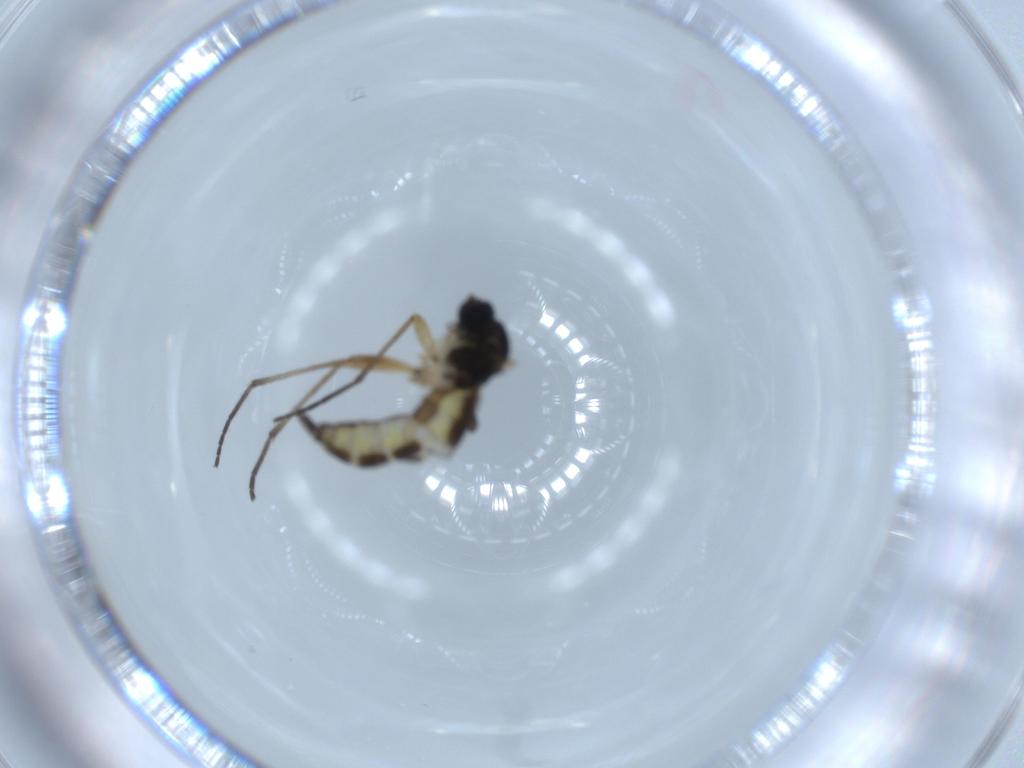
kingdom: Animalia
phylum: Arthropoda
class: Insecta
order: Diptera
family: Sciaridae
